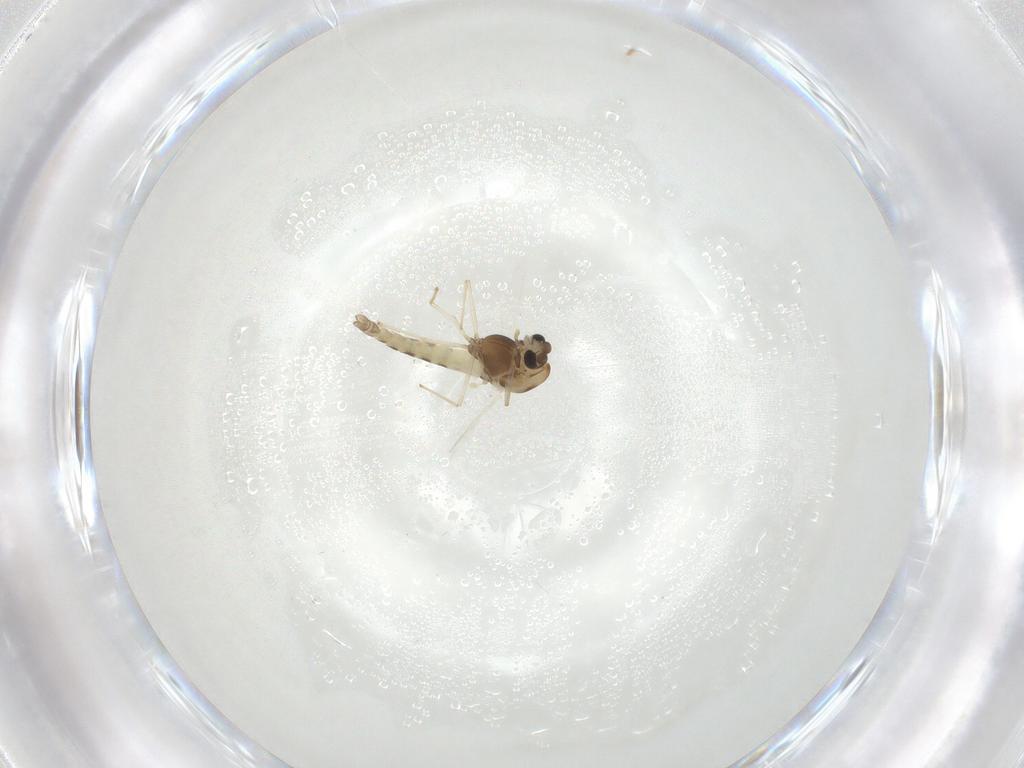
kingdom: Animalia
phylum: Arthropoda
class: Insecta
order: Diptera
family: Chironomidae
